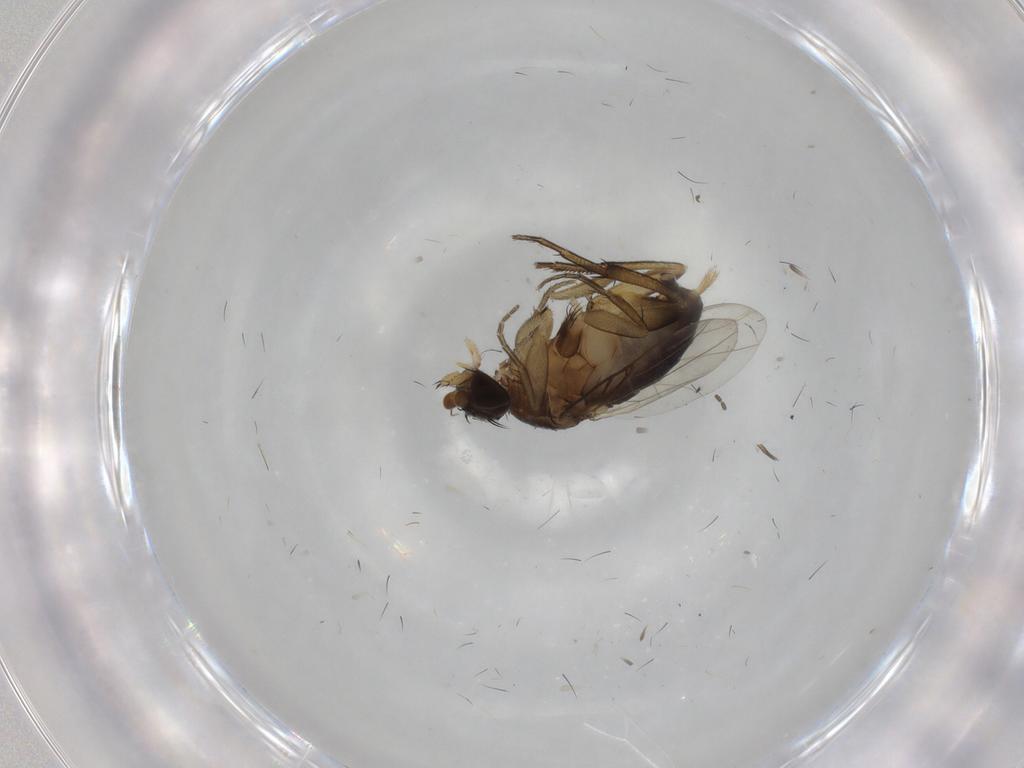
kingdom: Animalia
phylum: Arthropoda
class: Insecta
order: Diptera
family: Phoridae
